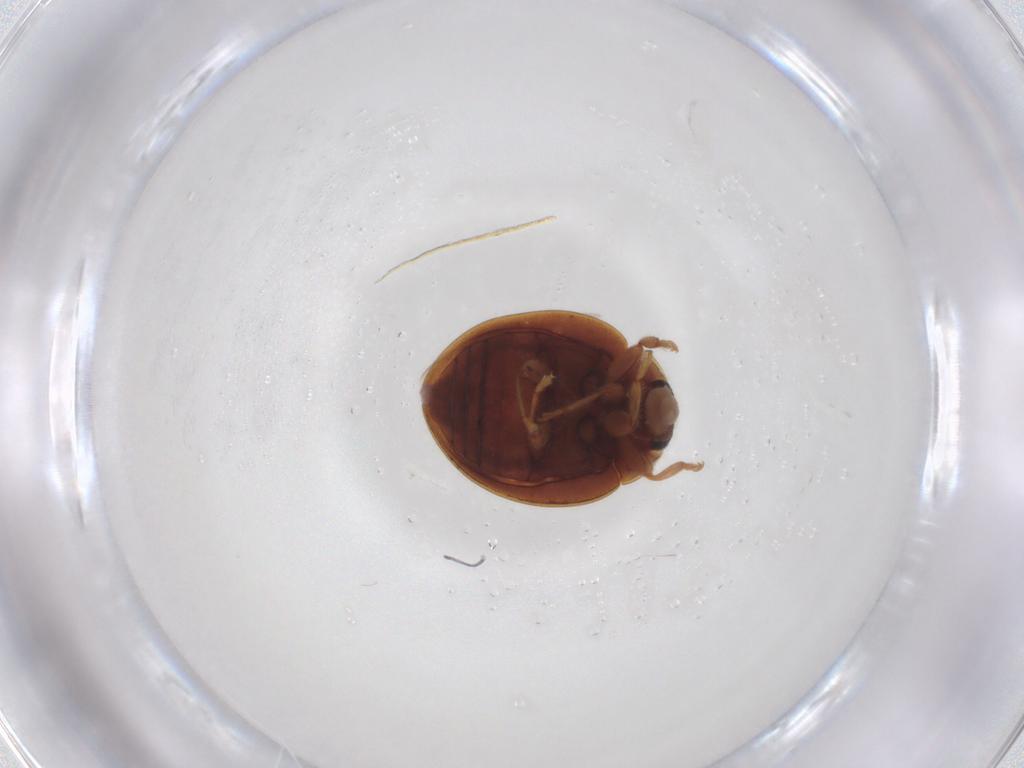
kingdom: Animalia
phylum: Arthropoda
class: Insecta
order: Coleoptera
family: Coccinellidae
